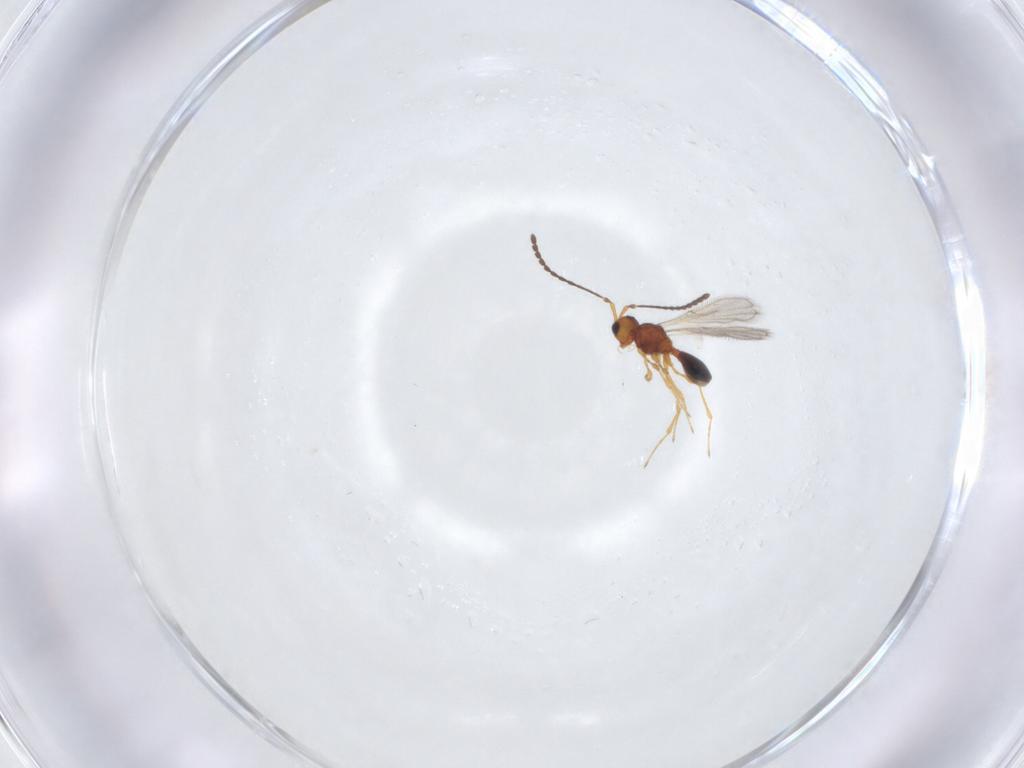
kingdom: Animalia
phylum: Arthropoda
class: Insecta
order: Hymenoptera
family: Diapriidae
